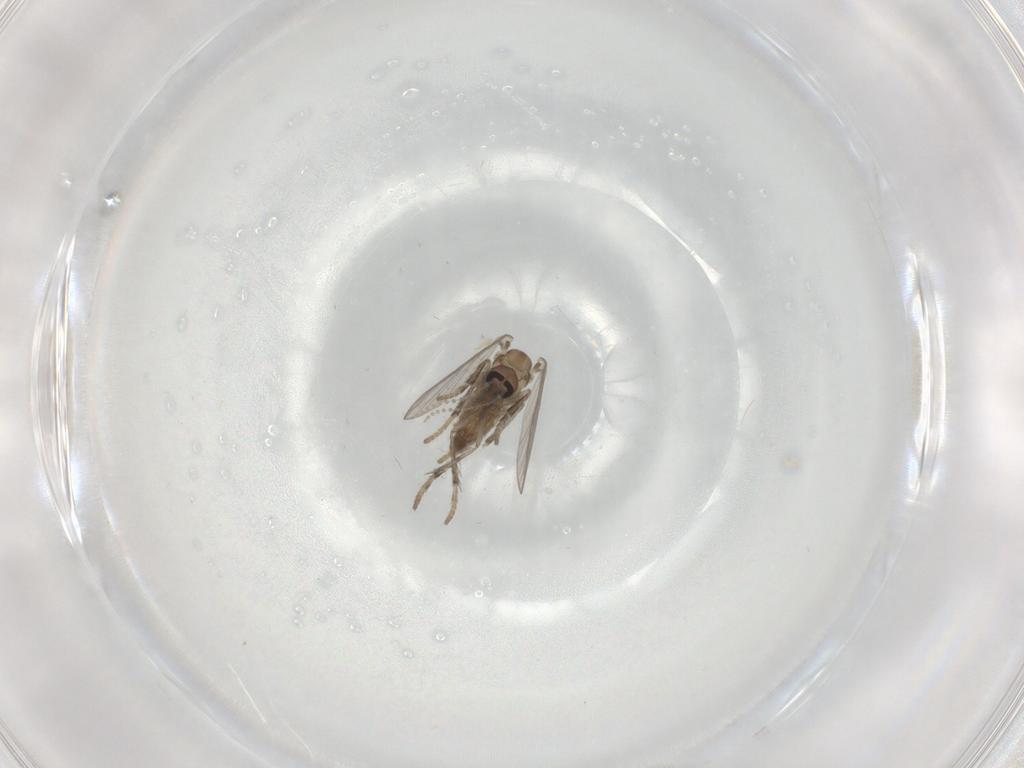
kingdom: Animalia
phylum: Arthropoda
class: Insecta
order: Diptera
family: Psychodidae
